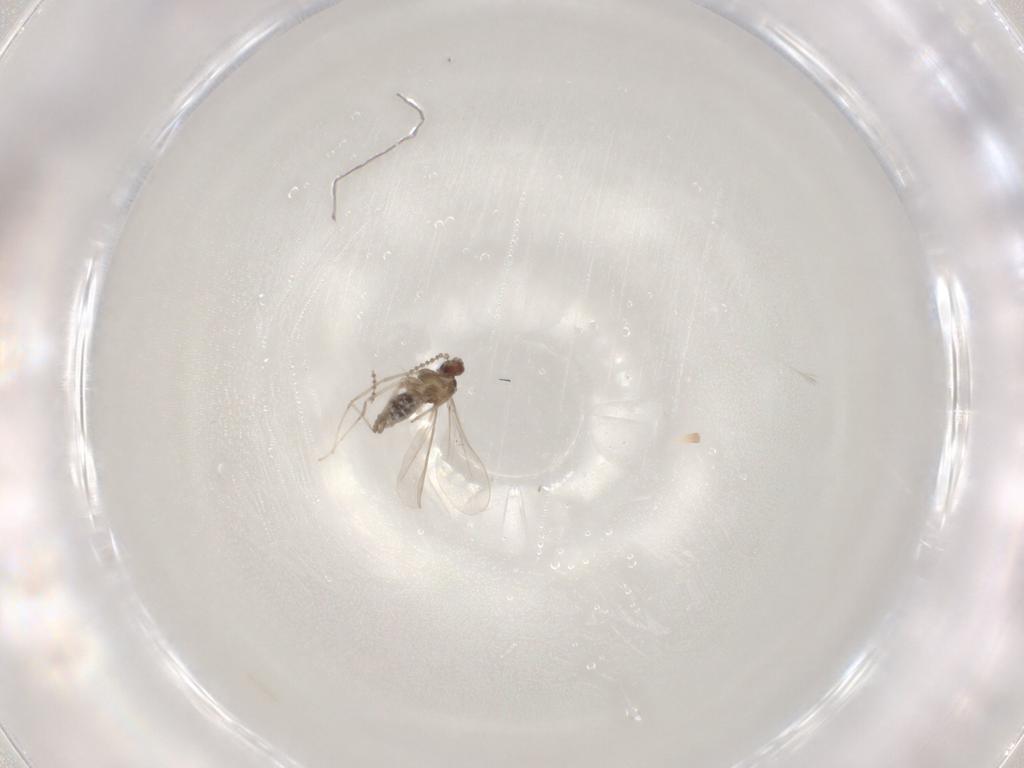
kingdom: Animalia
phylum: Arthropoda
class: Insecta
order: Diptera
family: Cecidomyiidae
